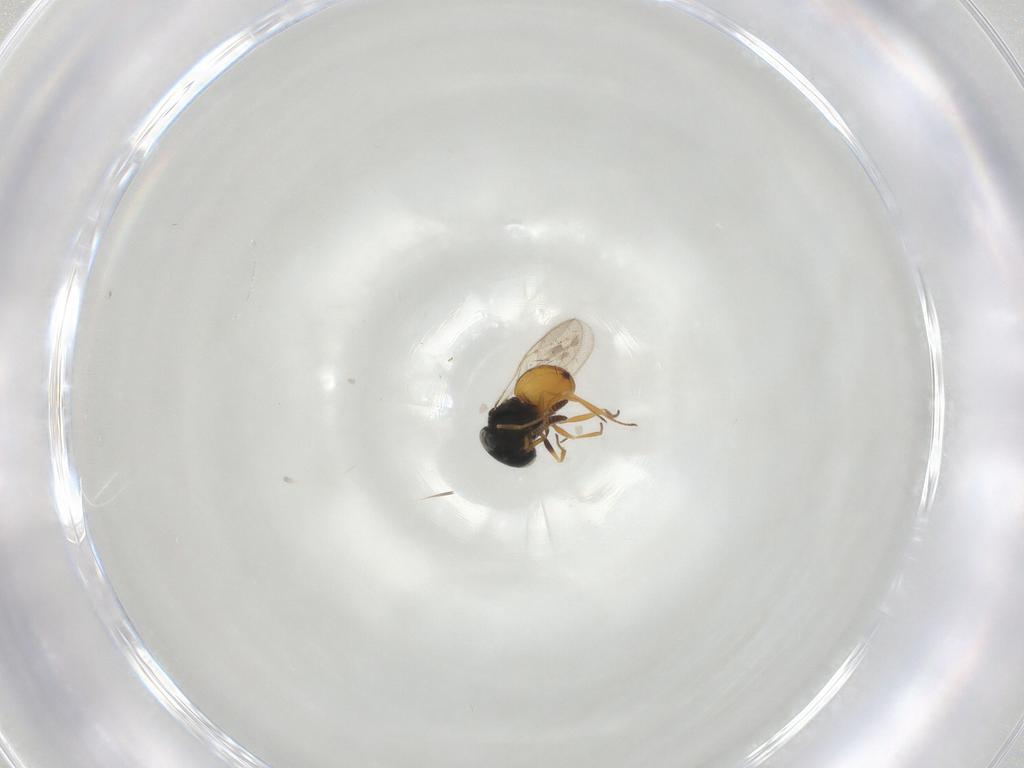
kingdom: Animalia
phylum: Arthropoda
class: Insecta
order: Hymenoptera
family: Scelionidae
